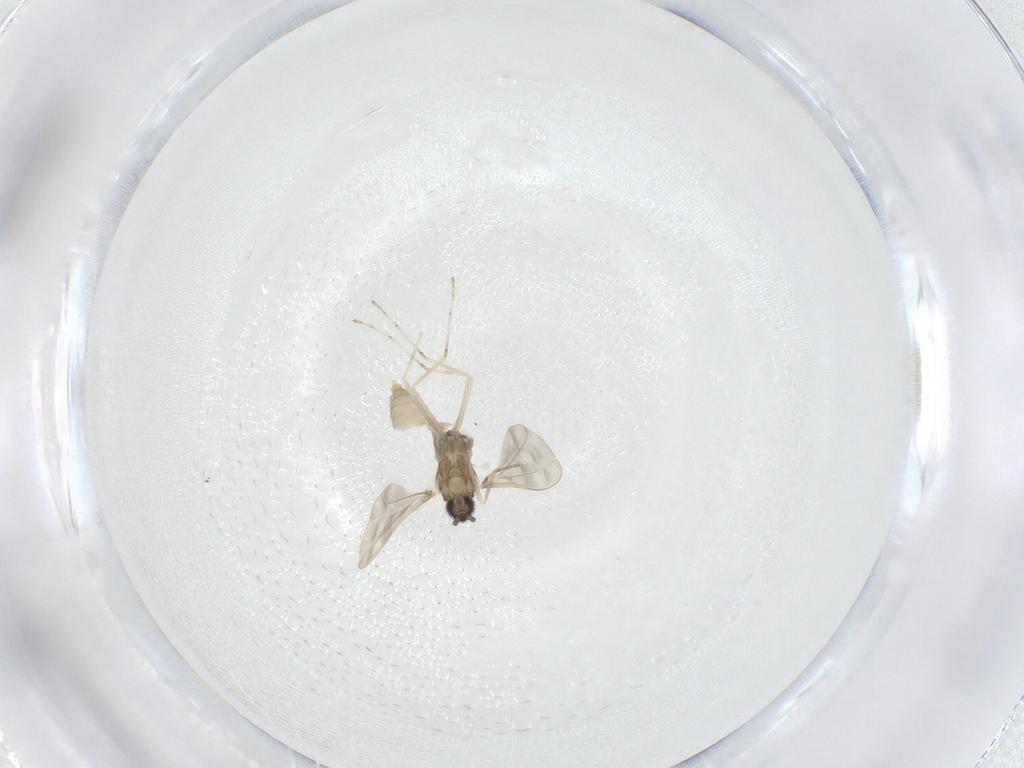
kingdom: Animalia
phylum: Arthropoda
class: Insecta
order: Diptera
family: Cecidomyiidae
